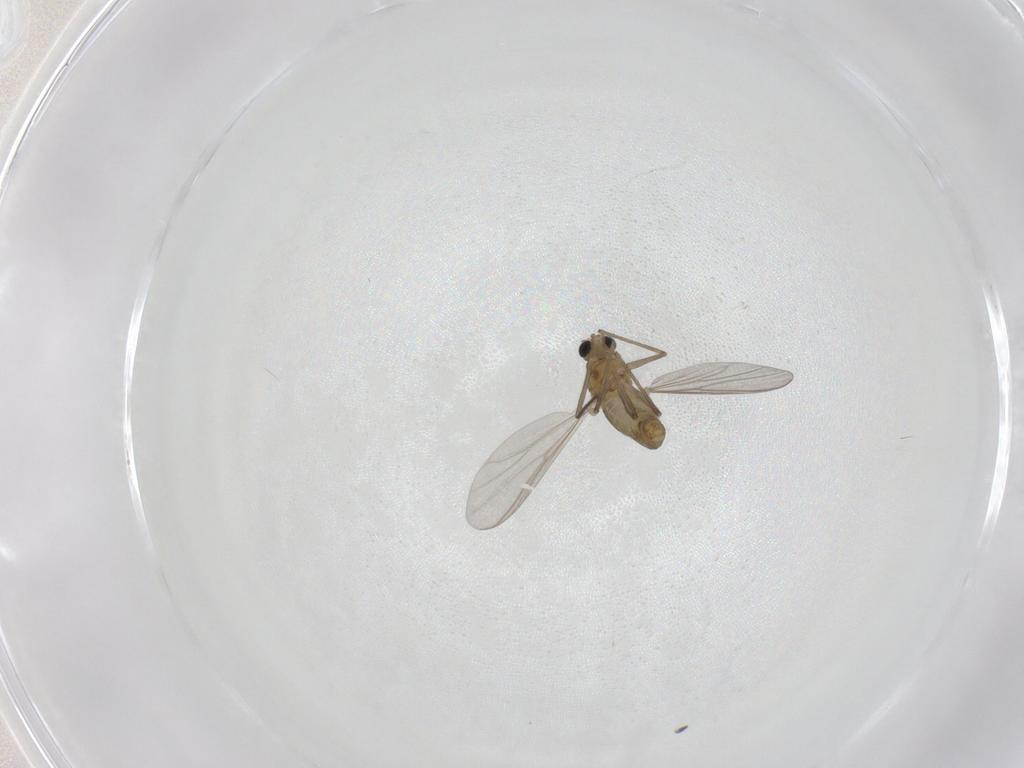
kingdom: Animalia
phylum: Arthropoda
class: Insecta
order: Diptera
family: Chironomidae
